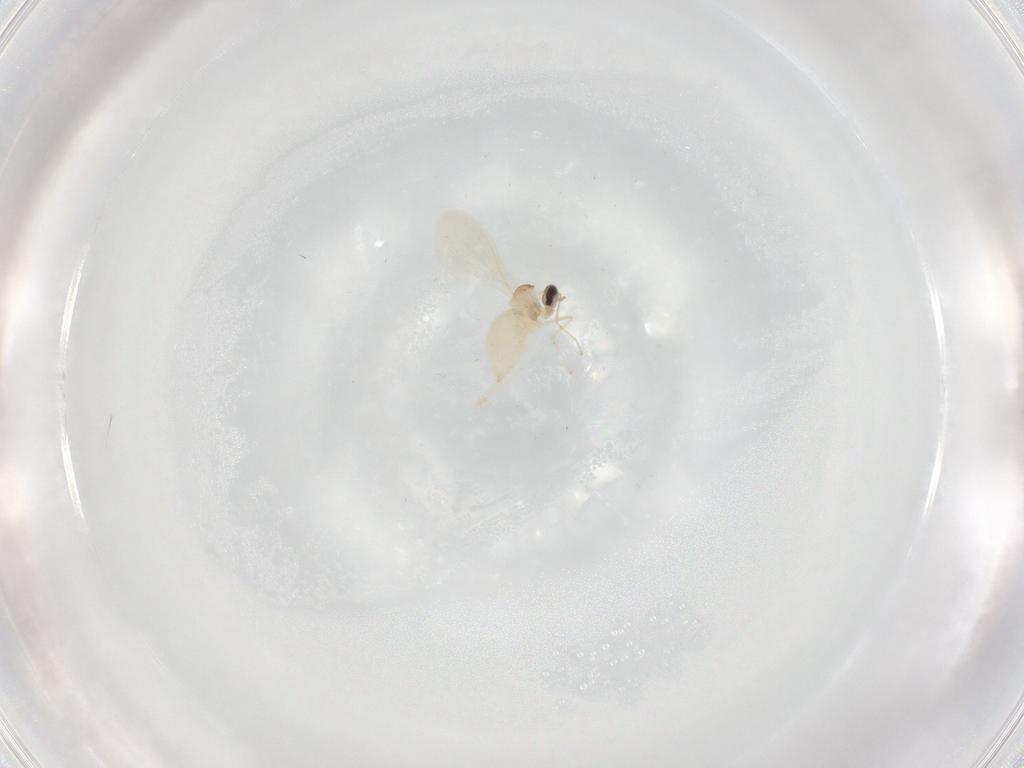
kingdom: Animalia
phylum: Arthropoda
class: Insecta
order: Diptera
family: Cecidomyiidae
